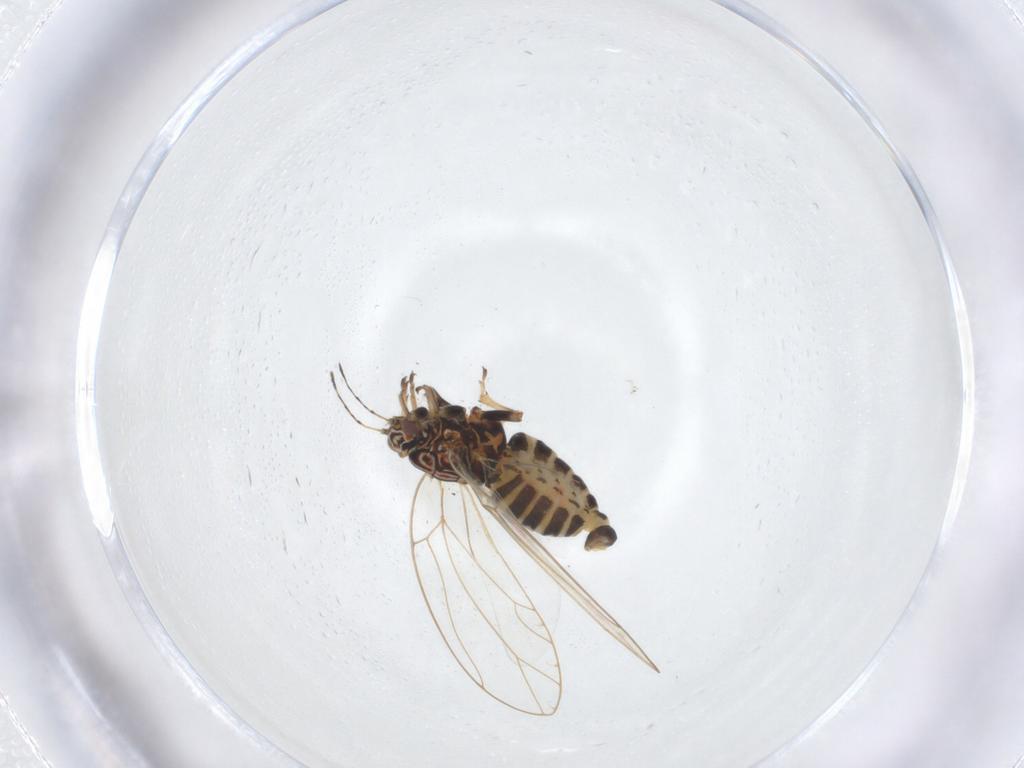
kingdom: Animalia
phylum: Arthropoda
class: Insecta
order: Hemiptera
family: Triozidae
